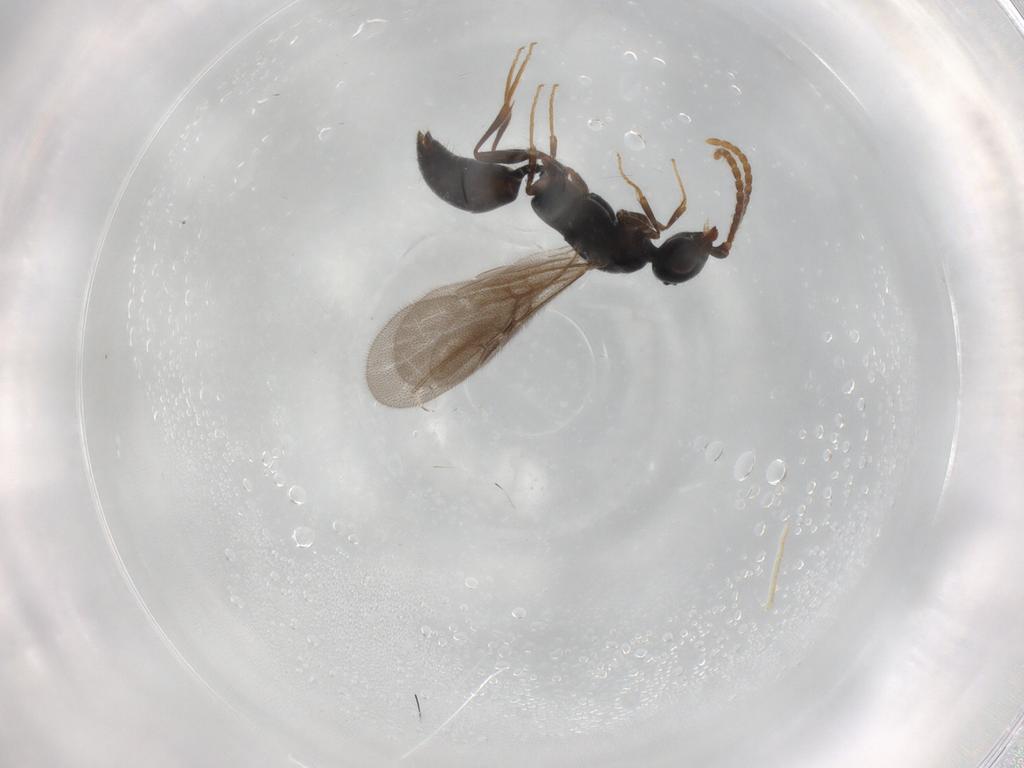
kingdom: Animalia
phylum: Arthropoda
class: Insecta
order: Hymenoptera
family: Bethylidae
